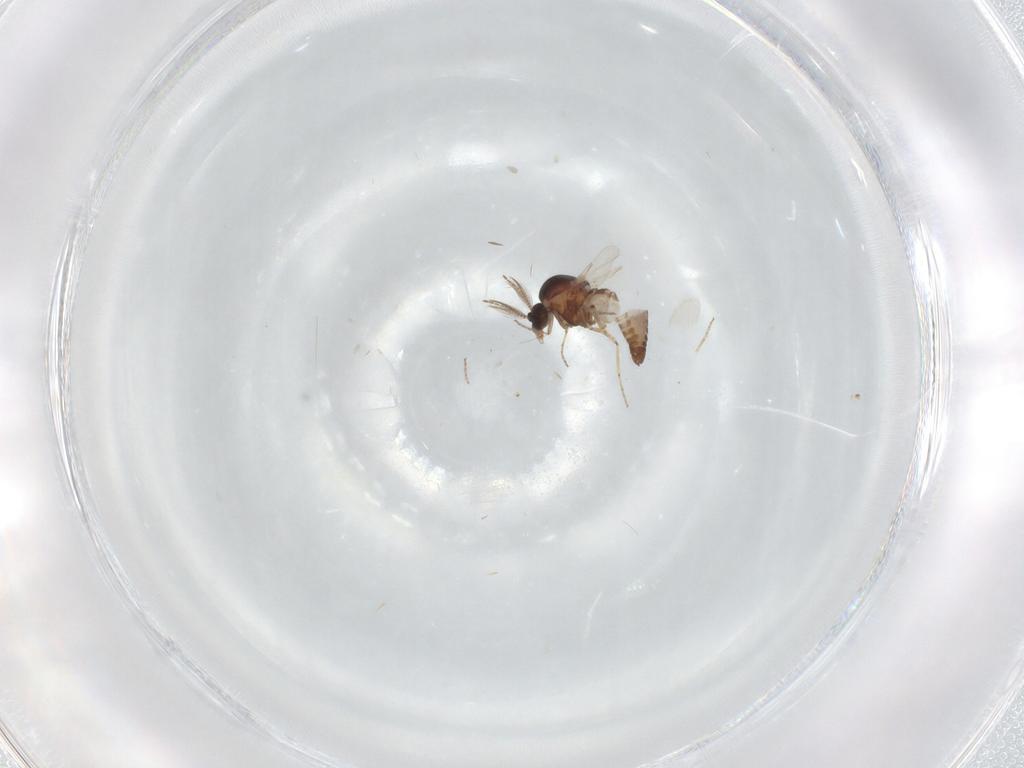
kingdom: Animalia
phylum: Arthropoda
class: Insecta
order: Diptera
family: Ceratopogonidae
